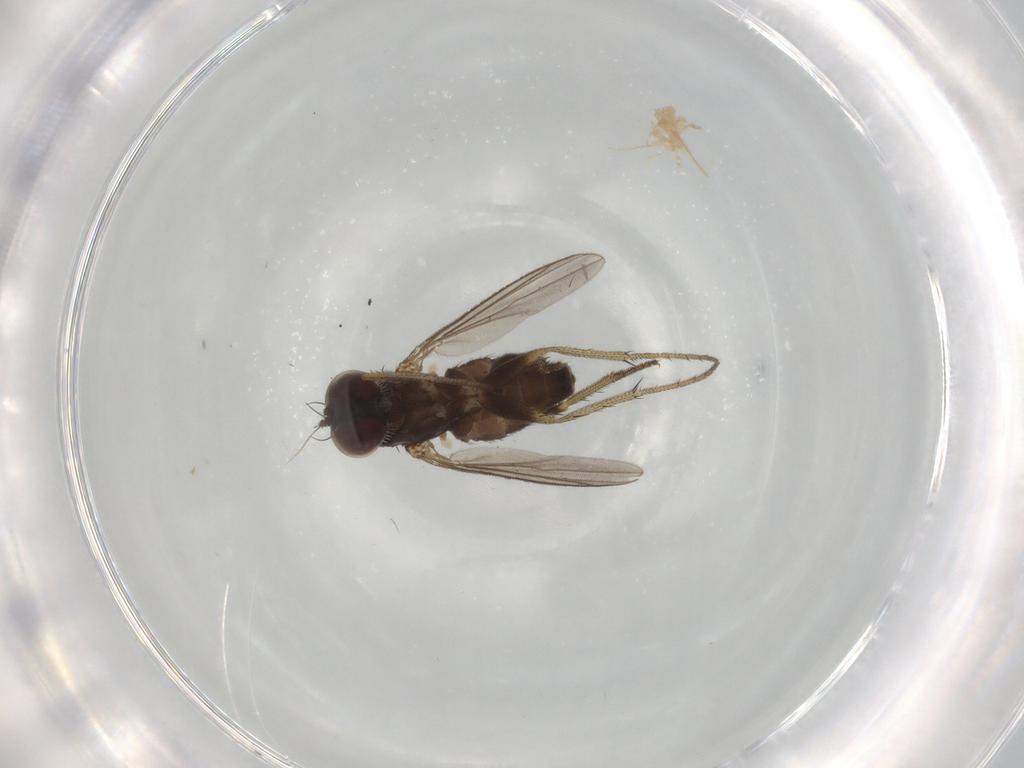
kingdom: Animalia
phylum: Arthropoda
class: Insecta
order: Diptera
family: Dolichopodidae
